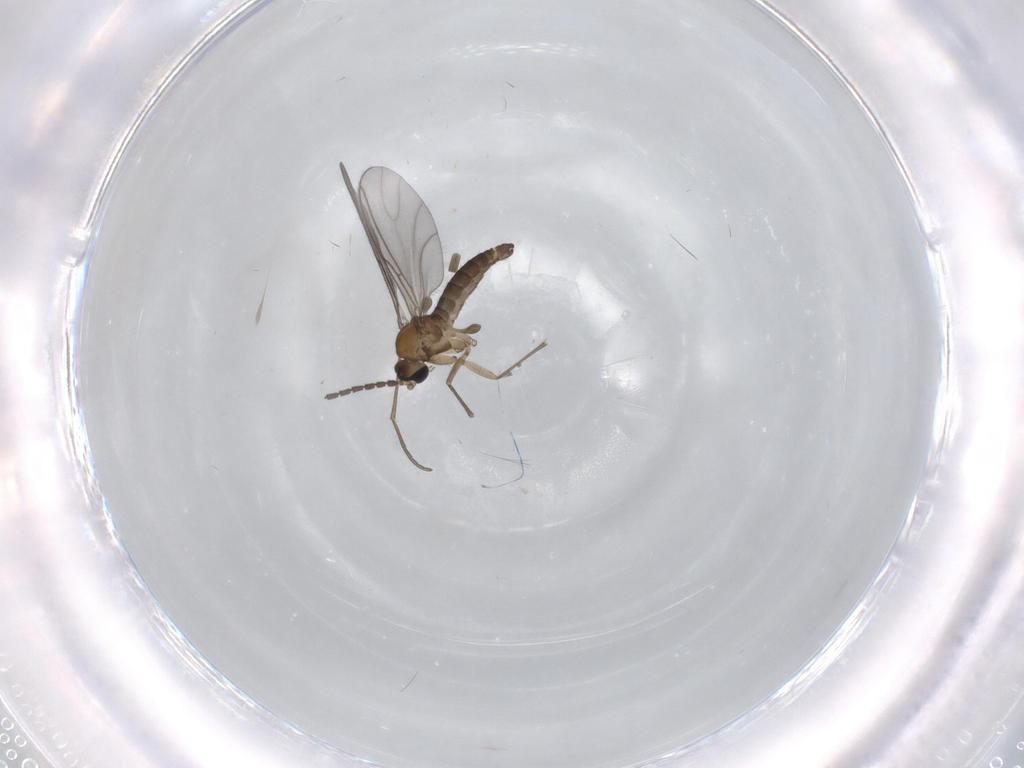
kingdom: Animalia
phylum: Arthropoda
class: Insecta
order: Diptera
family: Sciaridae
